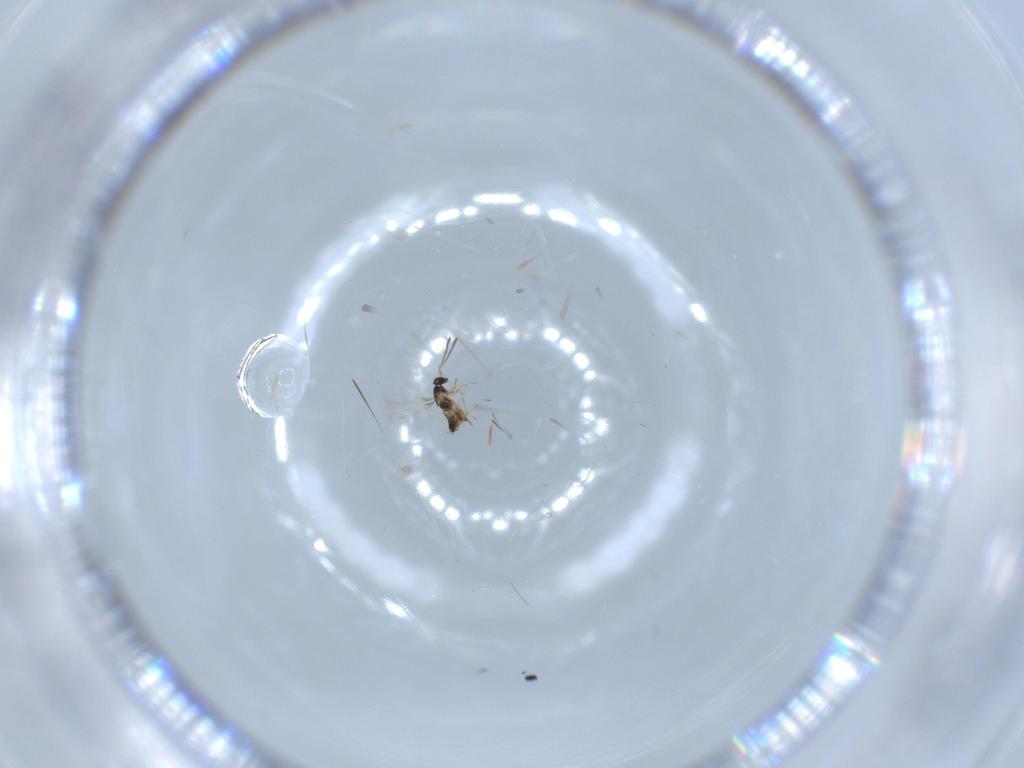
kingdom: Animalia
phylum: Arthropoda
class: Insecta
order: Hymenoptera
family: Mymaridae
